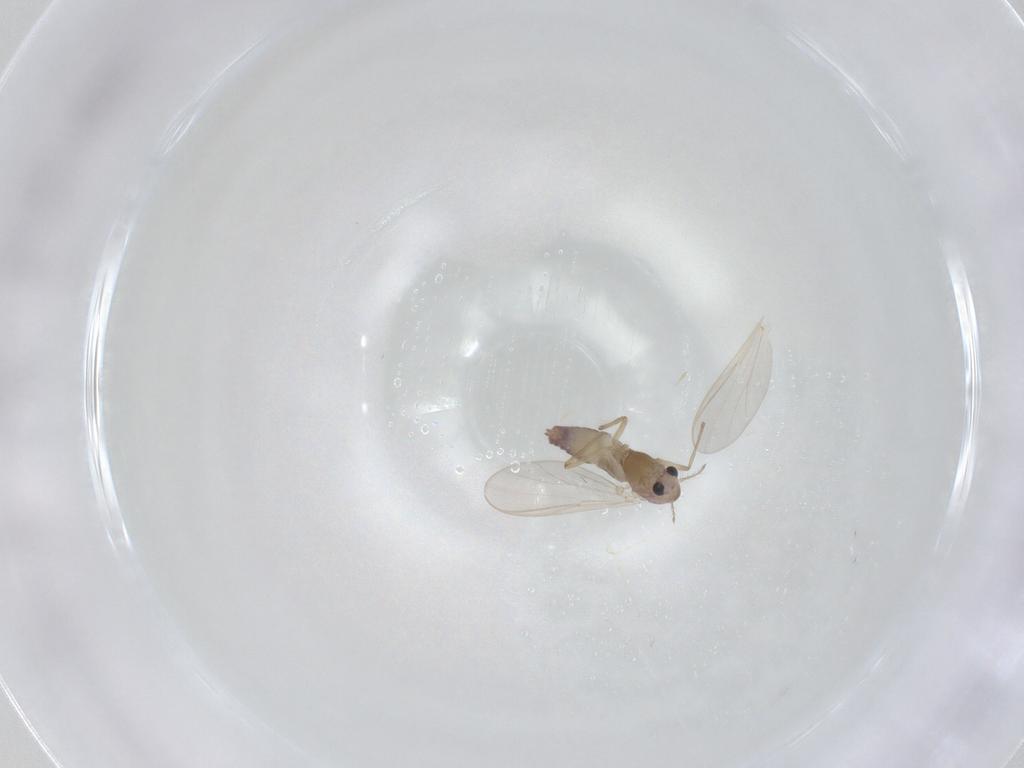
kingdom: Animalia
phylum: Arthropoda
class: Insecta
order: Diptera
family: Chironomidae
